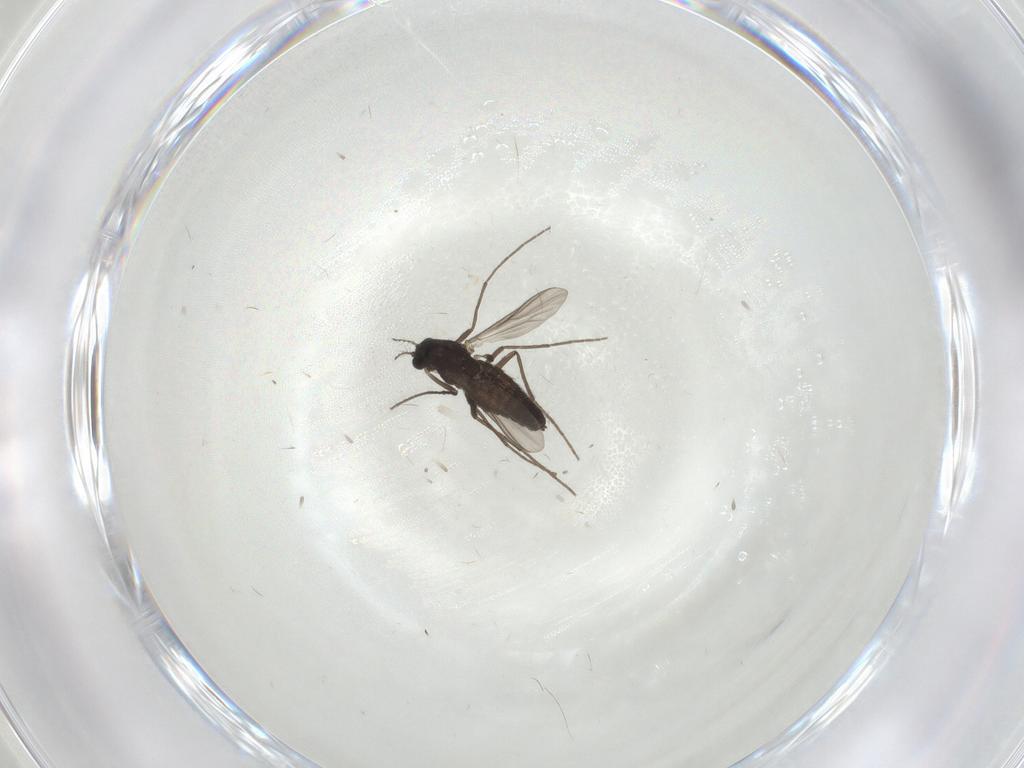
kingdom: Animalia
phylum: Arthropoda
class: Insecta
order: Diptera
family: Chironomidae
